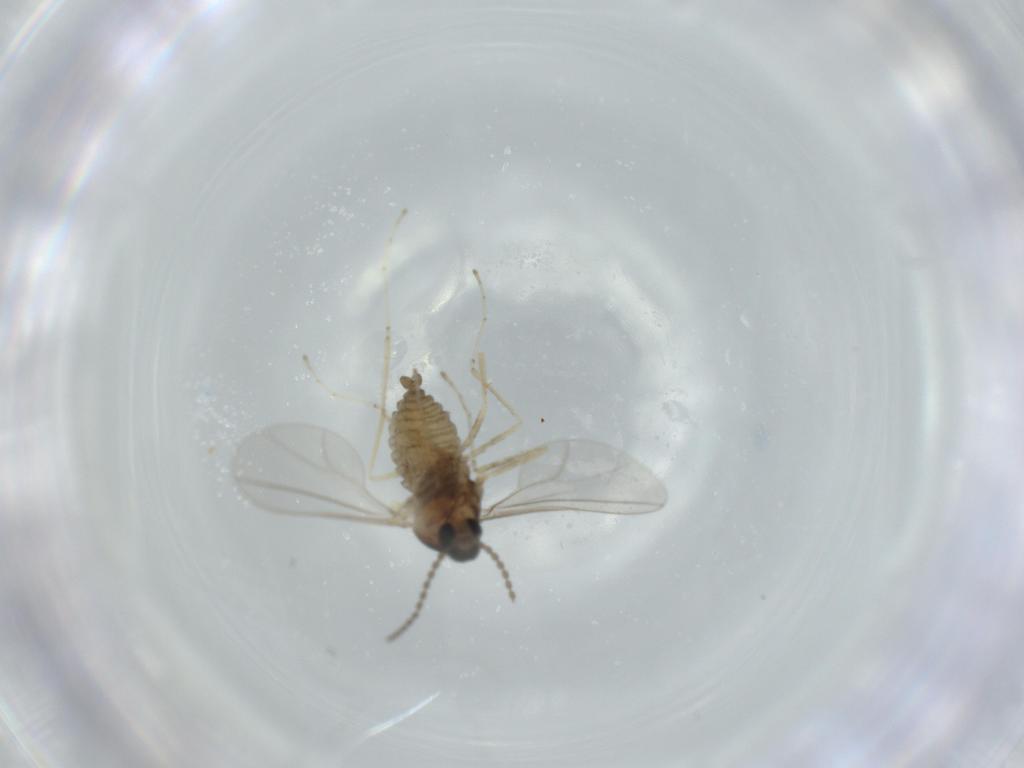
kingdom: Animalia
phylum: Arthropoda
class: Insecta
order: Diptera
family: Cecidomyiidae
